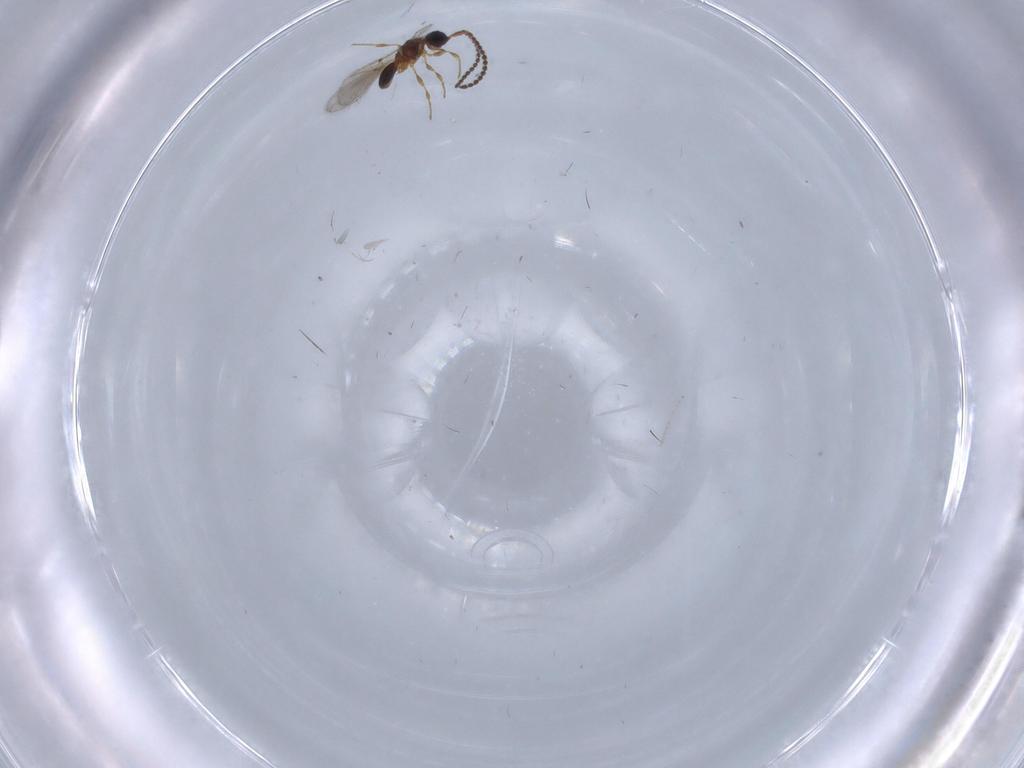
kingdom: Animalia
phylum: Arthropoda
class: Insecta
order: Hymenoptera
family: Diapriidae
